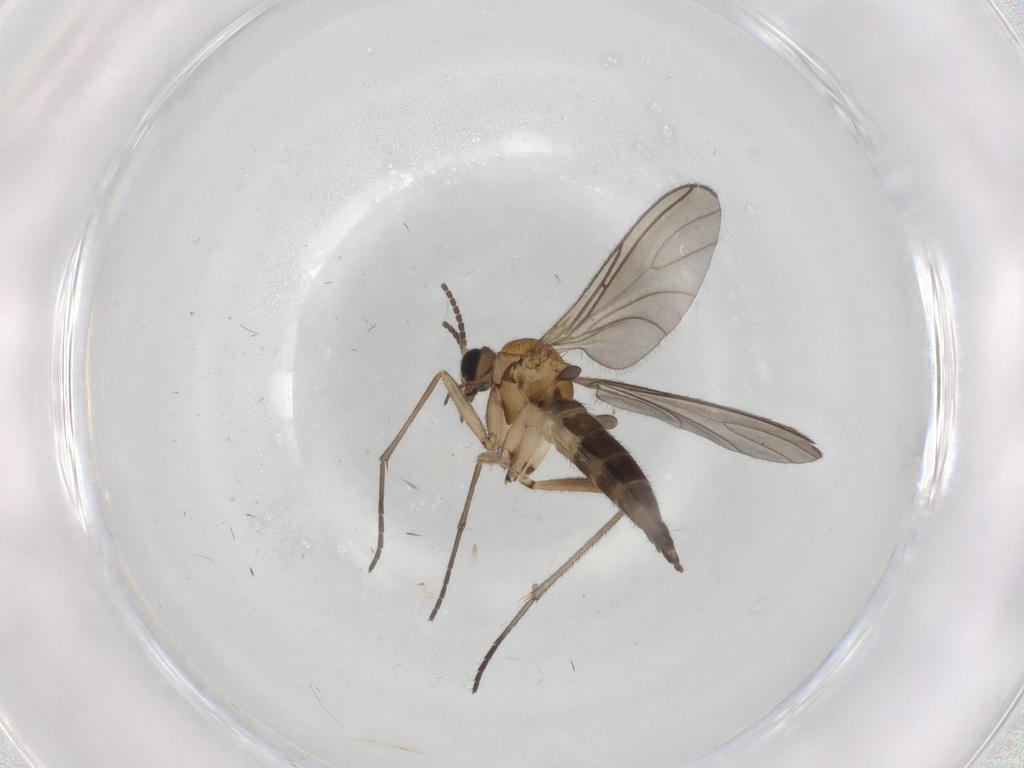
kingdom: Animalia
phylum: Arthropoda
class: Insecta
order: Diptera
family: Sciaridae
